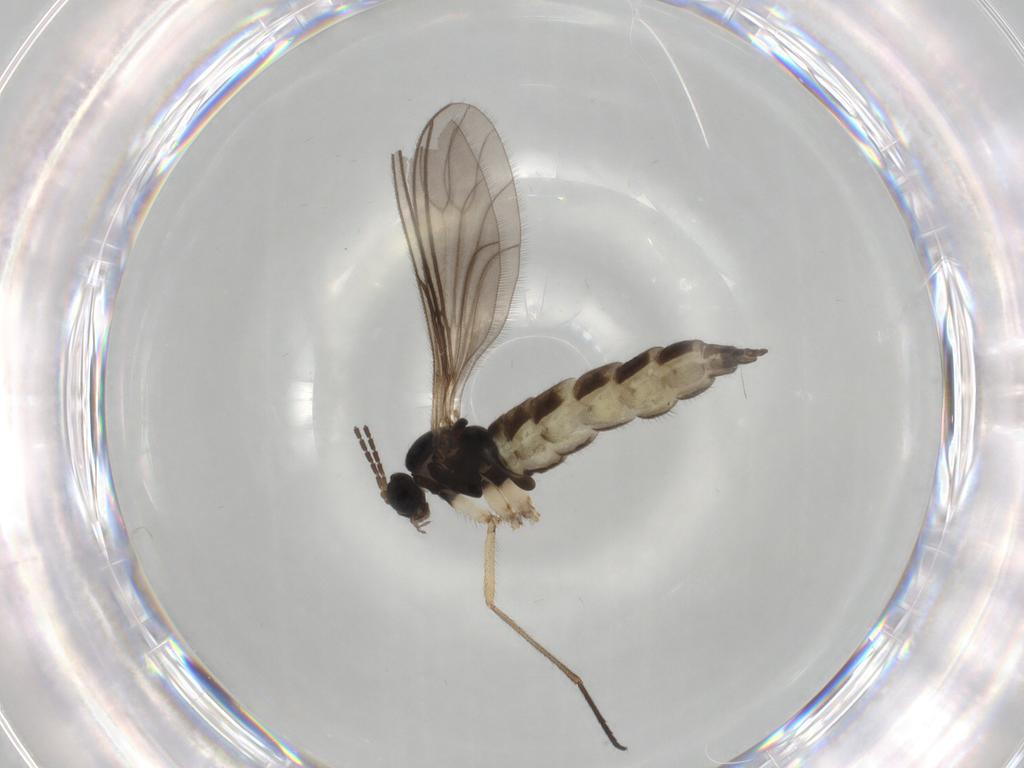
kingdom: Animalia
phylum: Arthropoda
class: Insecta
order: Diptera
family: Sciaridae
